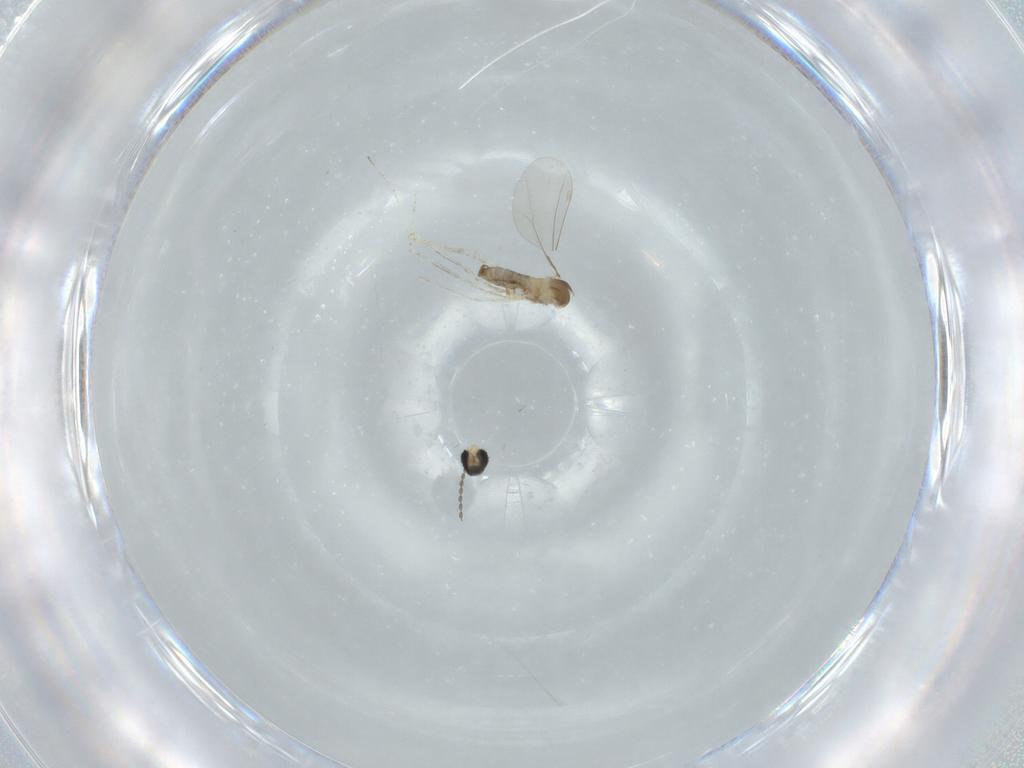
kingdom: Animalia
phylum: Arthropoda
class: Insecta
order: Diptera
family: Cecidomyiidae
